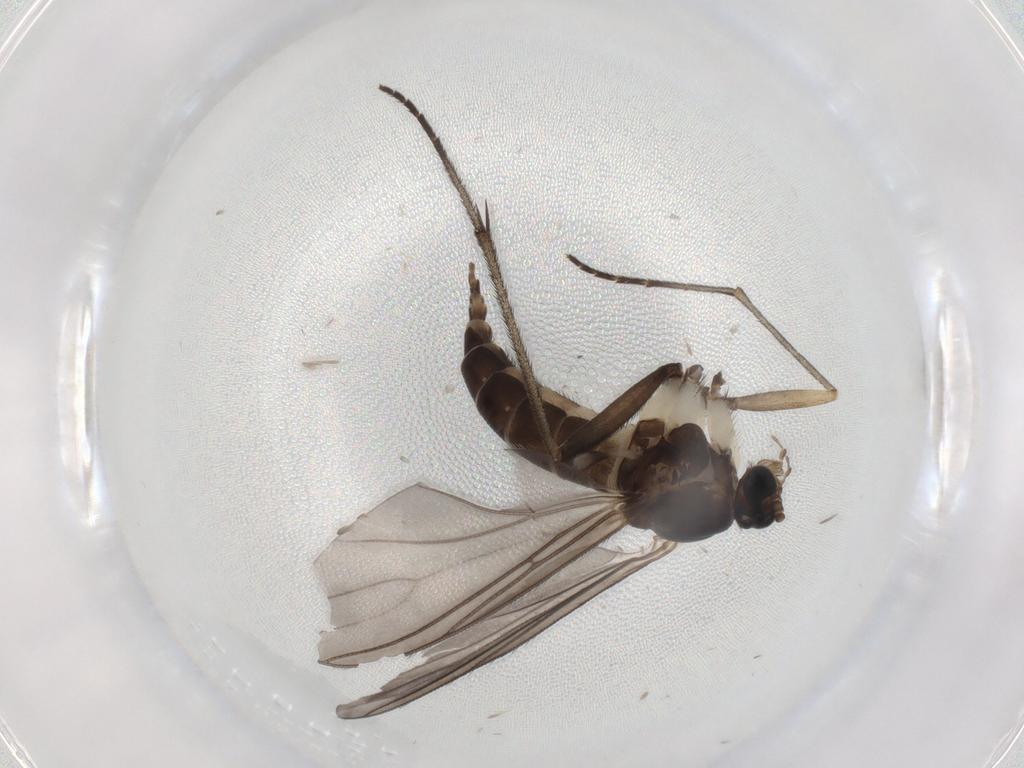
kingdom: Animalia
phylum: Arthropoda
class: Insecta
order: Diptera
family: Sciaridae
